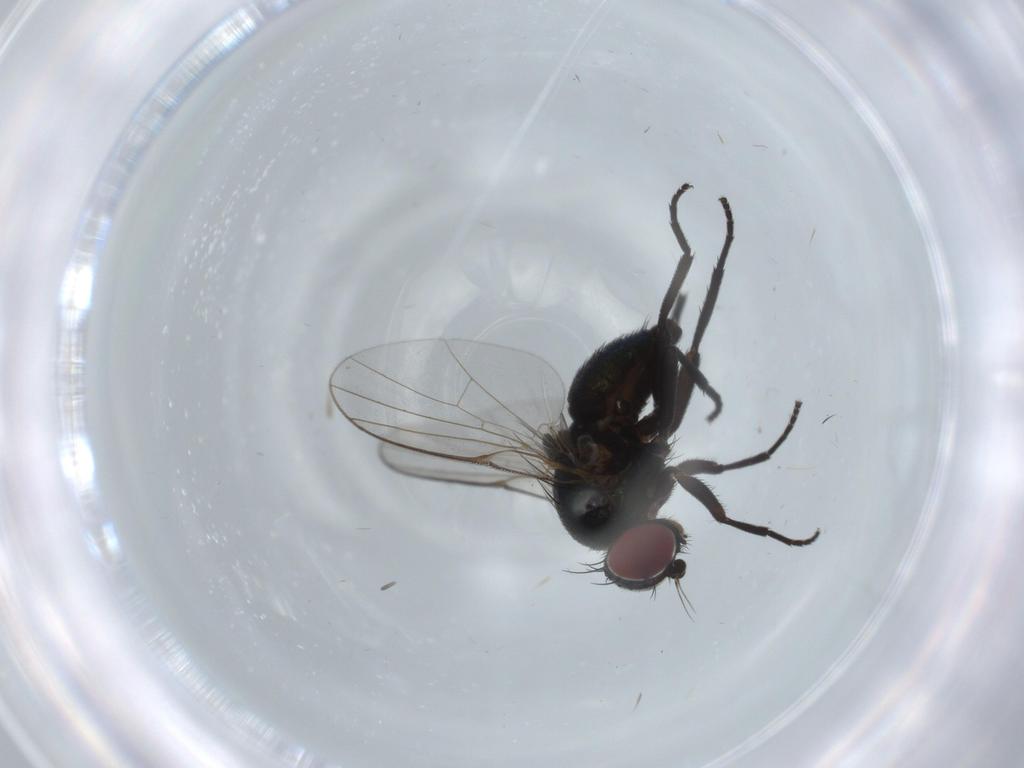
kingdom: Animalia
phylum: Arthropoda
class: Insecta
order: Diptera
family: Agromyzidae
